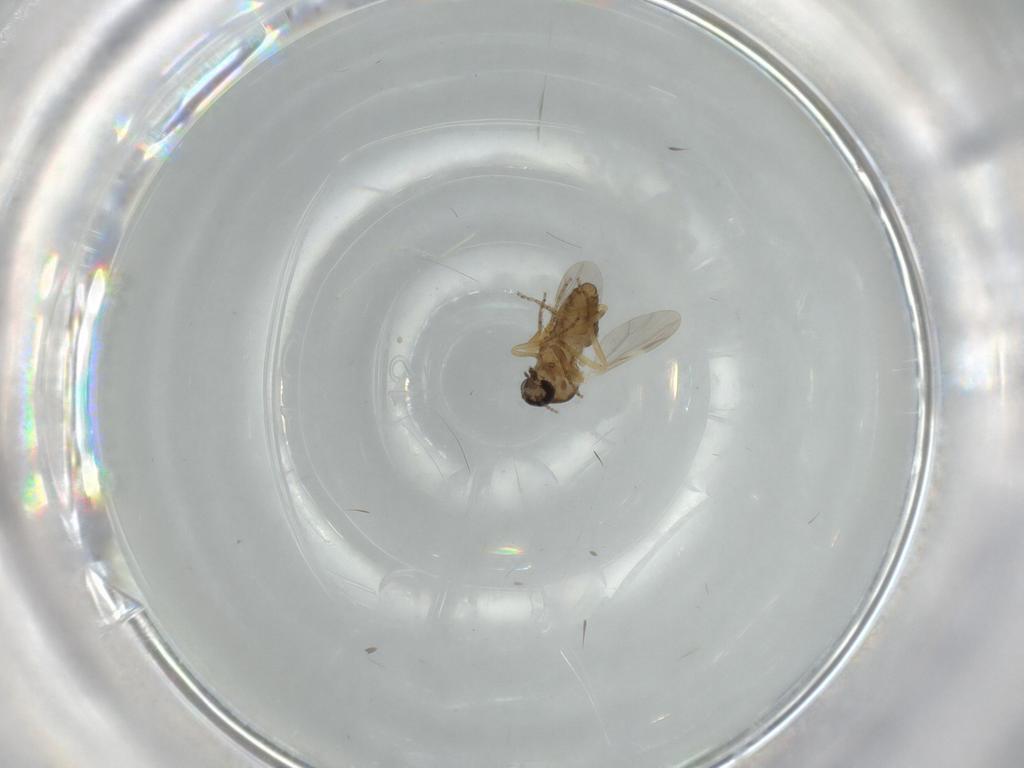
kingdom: Animalia
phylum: Arthropoda
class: Insecta
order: Diptera
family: Ceratopogonidae
